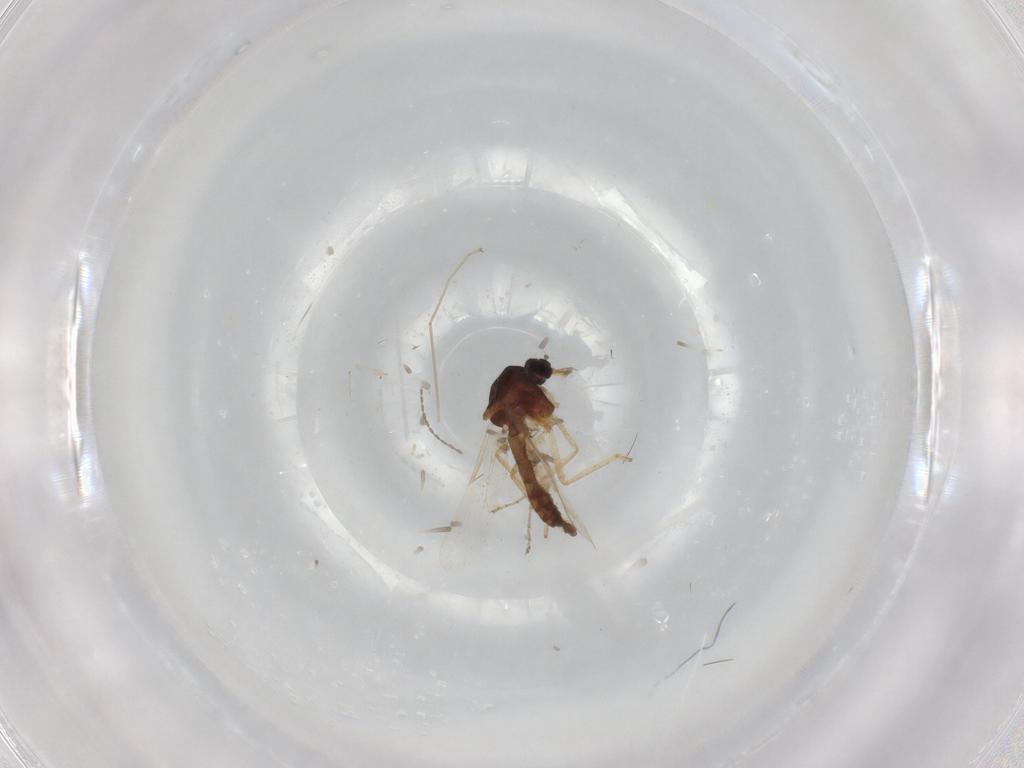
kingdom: Animalia
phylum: Arthropoda
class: Insecta
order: Diptera
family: Ceratopogonidae
